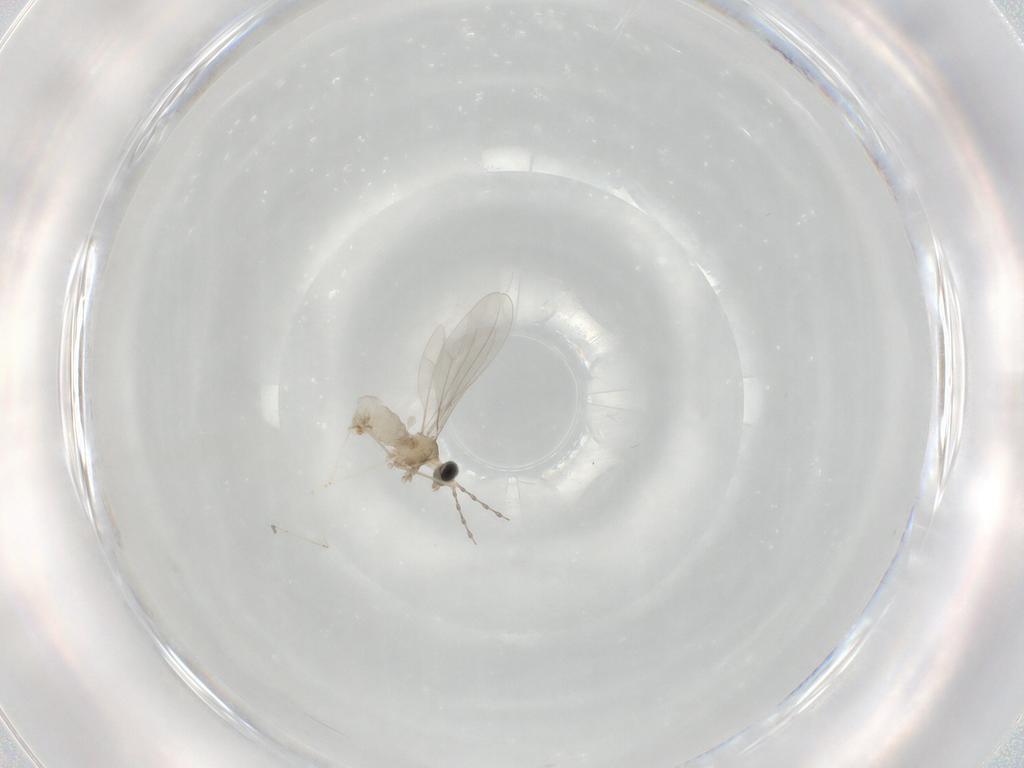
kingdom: Animalia
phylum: Arthropoda
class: Insecta
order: Diptera
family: Cecidomyiidae
